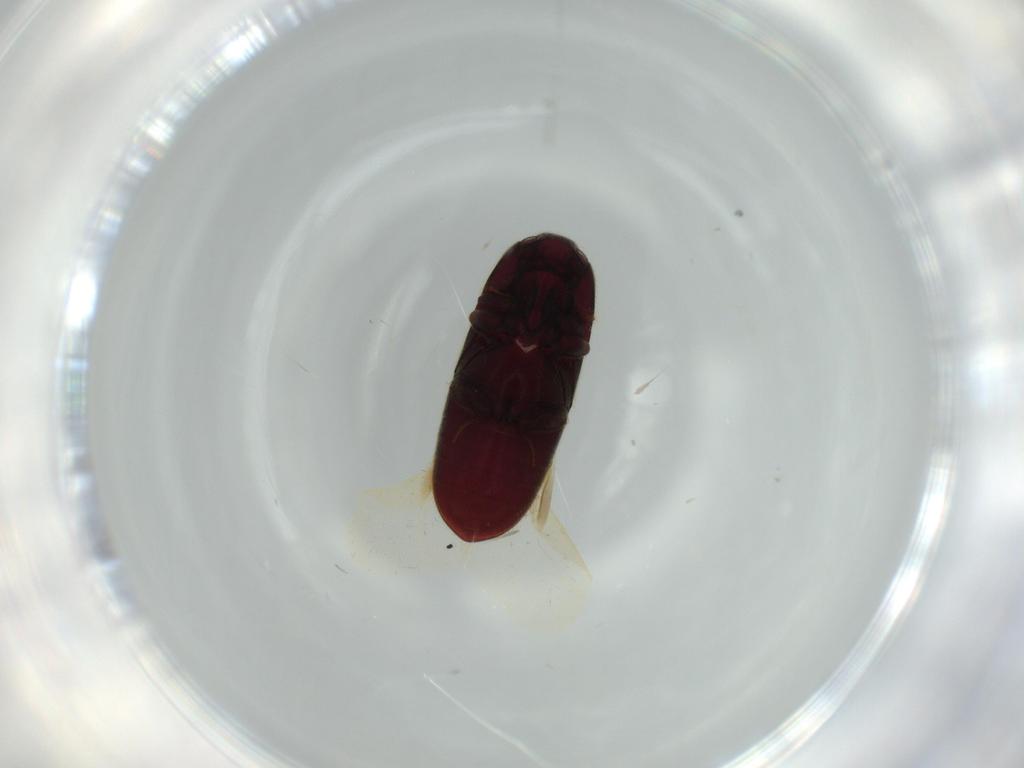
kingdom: Animalia
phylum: Arthropoda
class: Insecta
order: Coleoptera
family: Throscidae
